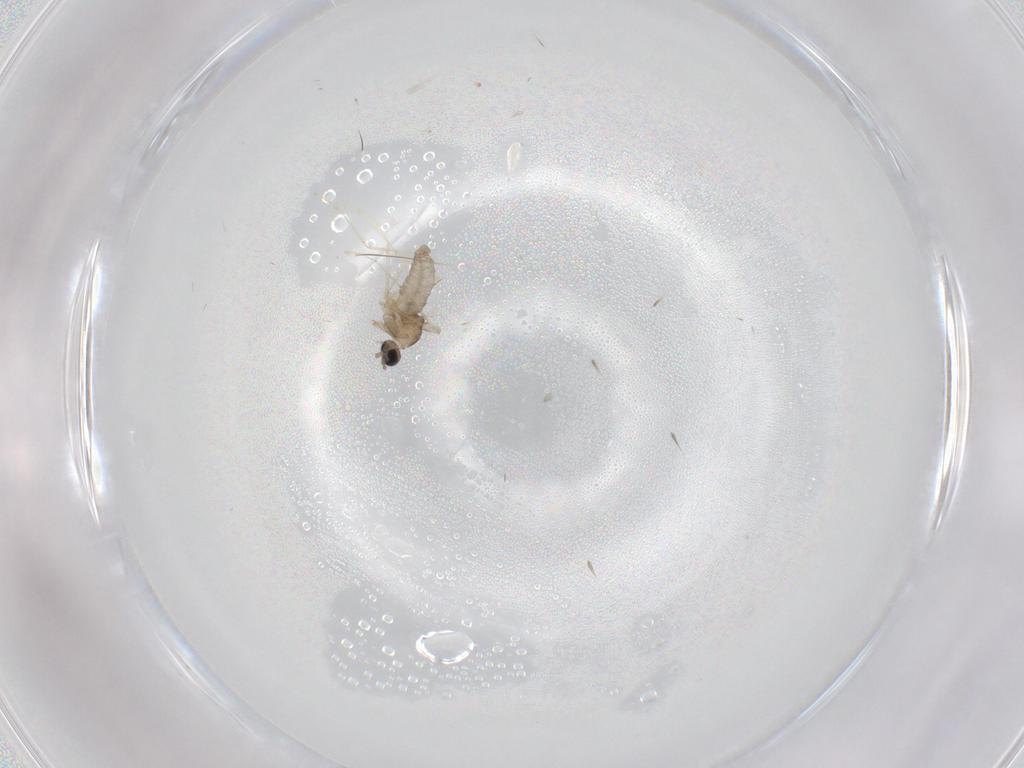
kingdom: Animalia
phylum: Arthropoda
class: Insecta
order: Diptera
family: Cecidomyiidae
